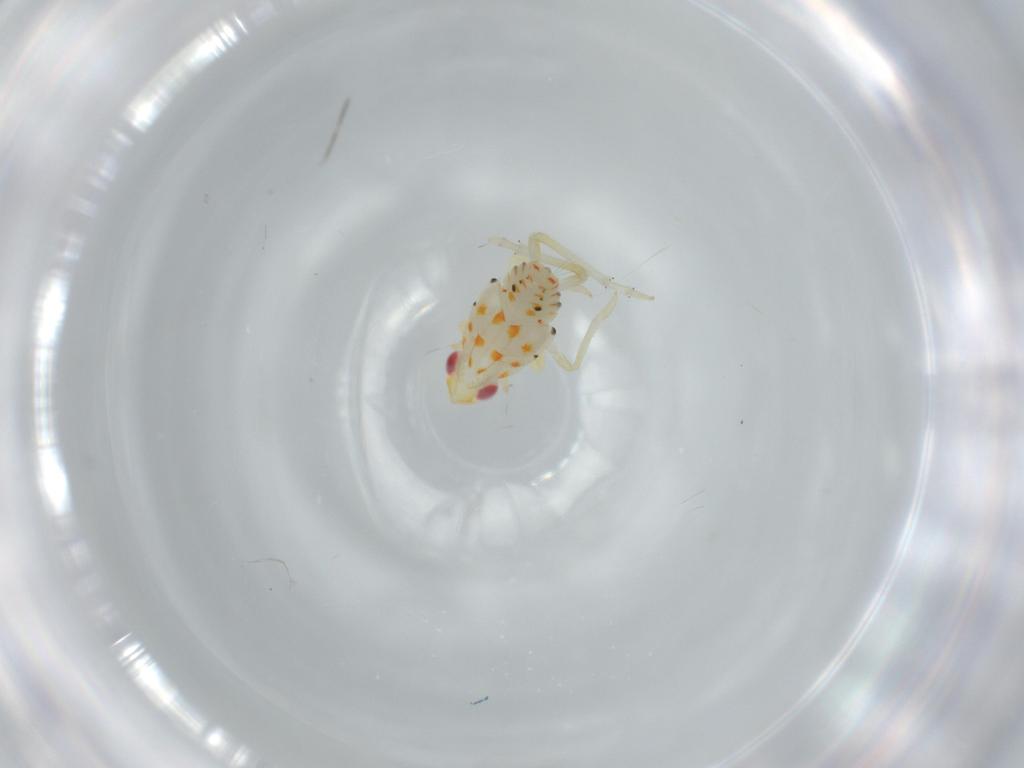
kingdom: Animalia
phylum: Arthropoda
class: Insecta
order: Hemiptera
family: Tropiduchidae
